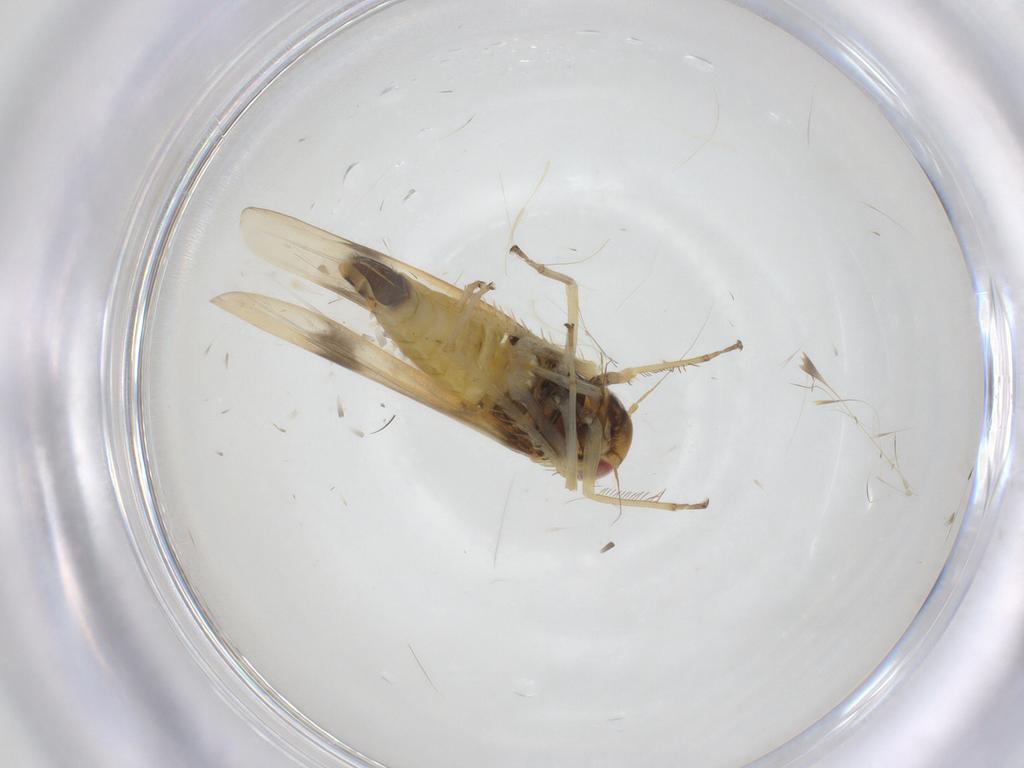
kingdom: Animalia
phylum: Arthropoda
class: Insecta
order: Hemiptera
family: Cicadellidae
